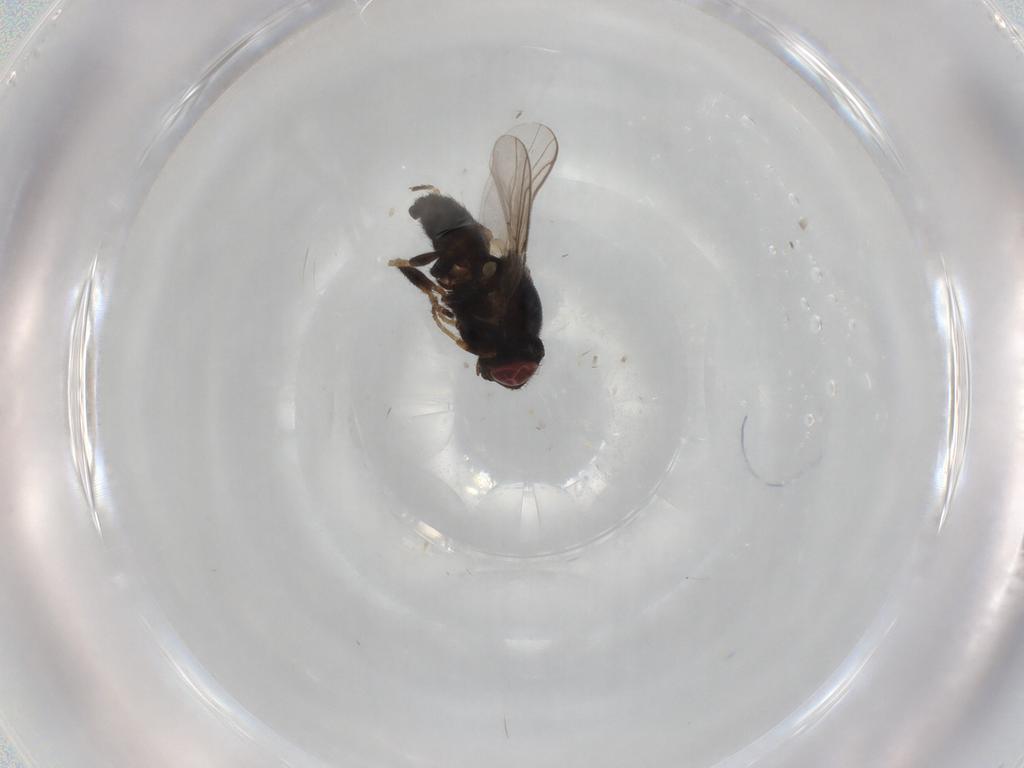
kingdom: Animalia
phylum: Arthropoda
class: Insecta
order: Diptera
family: Chloropidae
